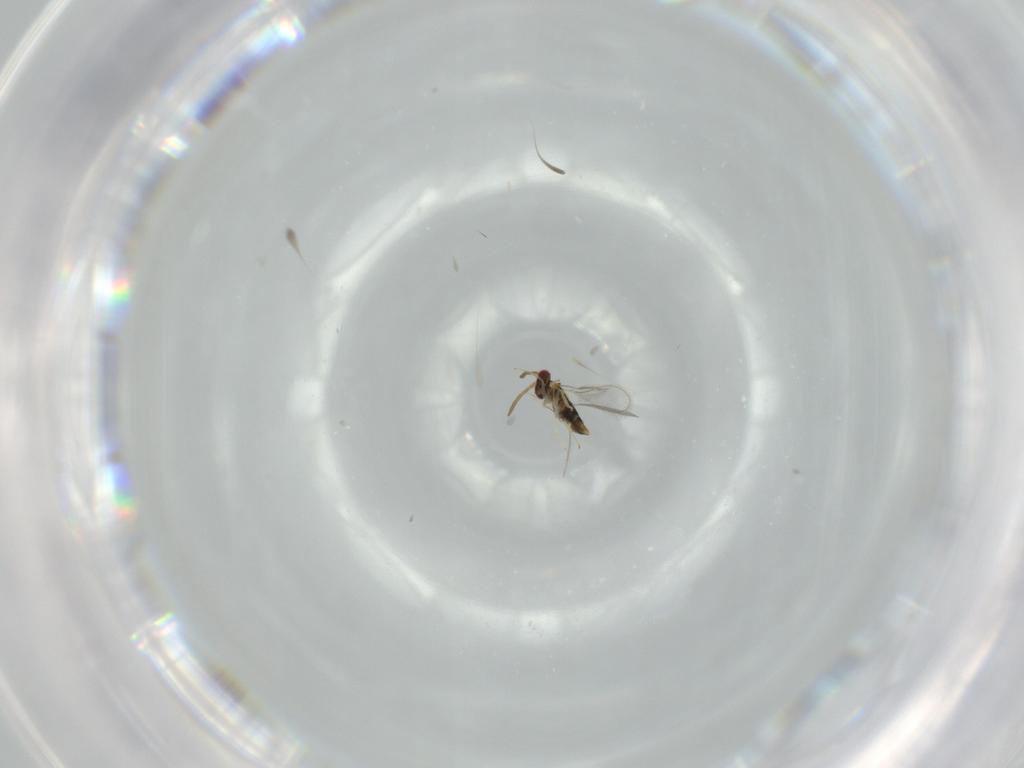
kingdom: Animalia
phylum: Arthropoda
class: Insecta
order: Hymenoptera
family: Aphelinidae
